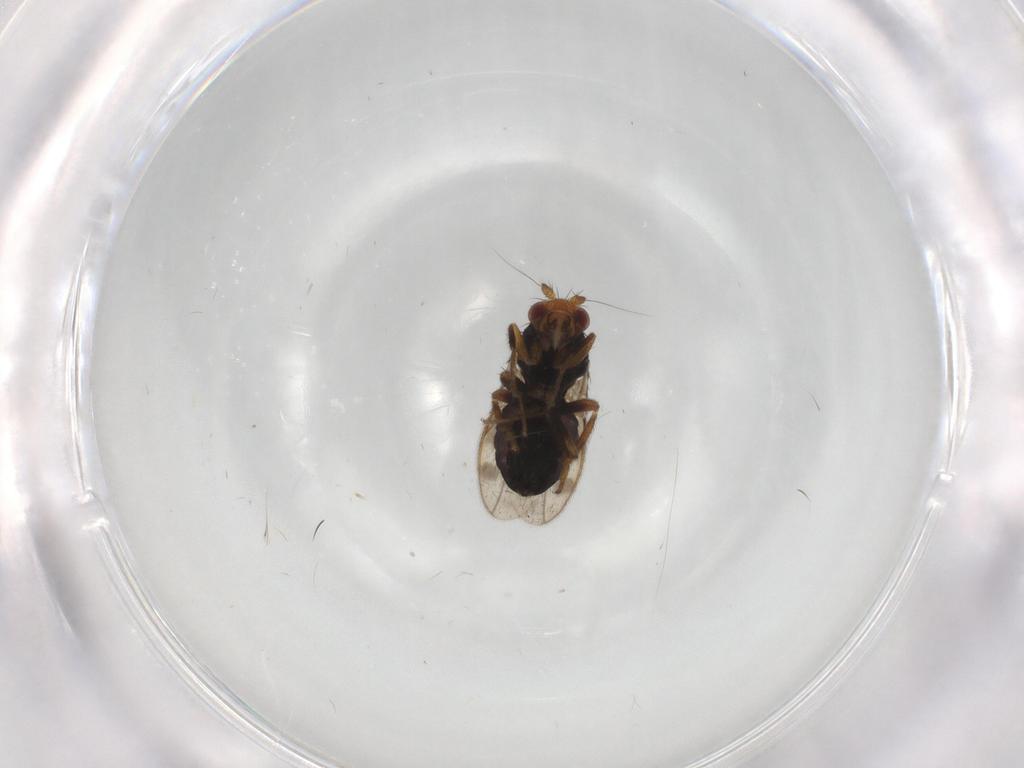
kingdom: Animalia
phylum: Arthropoda
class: Insecta
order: Diptera
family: Sphaeroceridae
